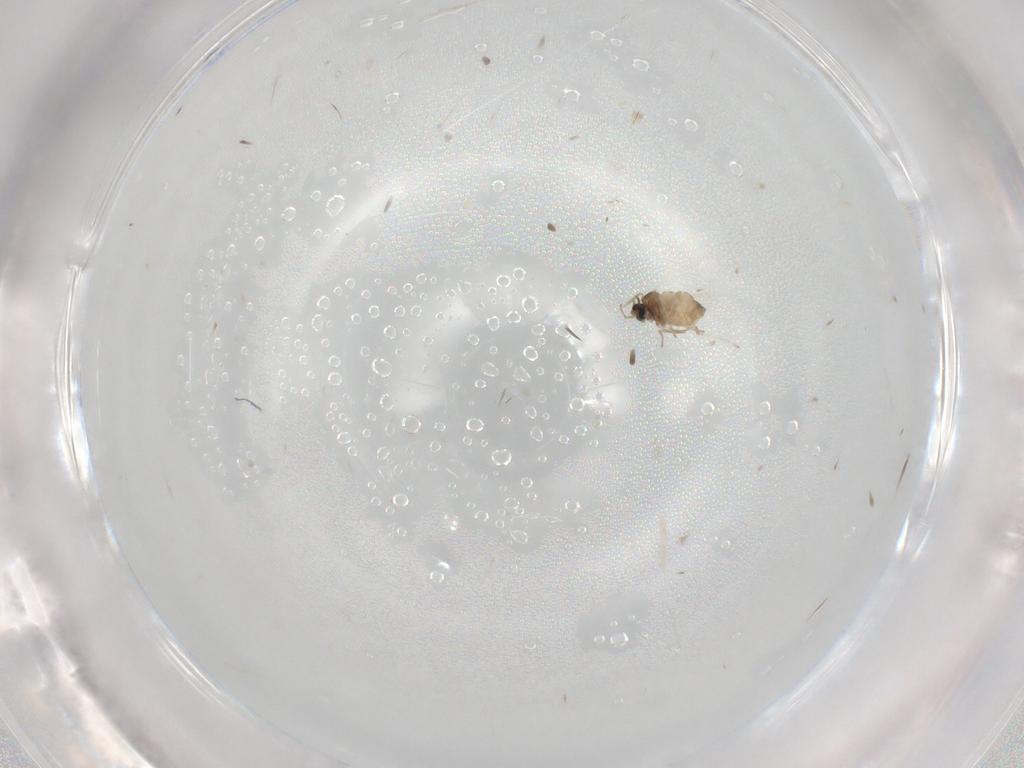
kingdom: Animalia
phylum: Arthropoda
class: Insecta
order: Diptera
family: Cecidomyiidae
